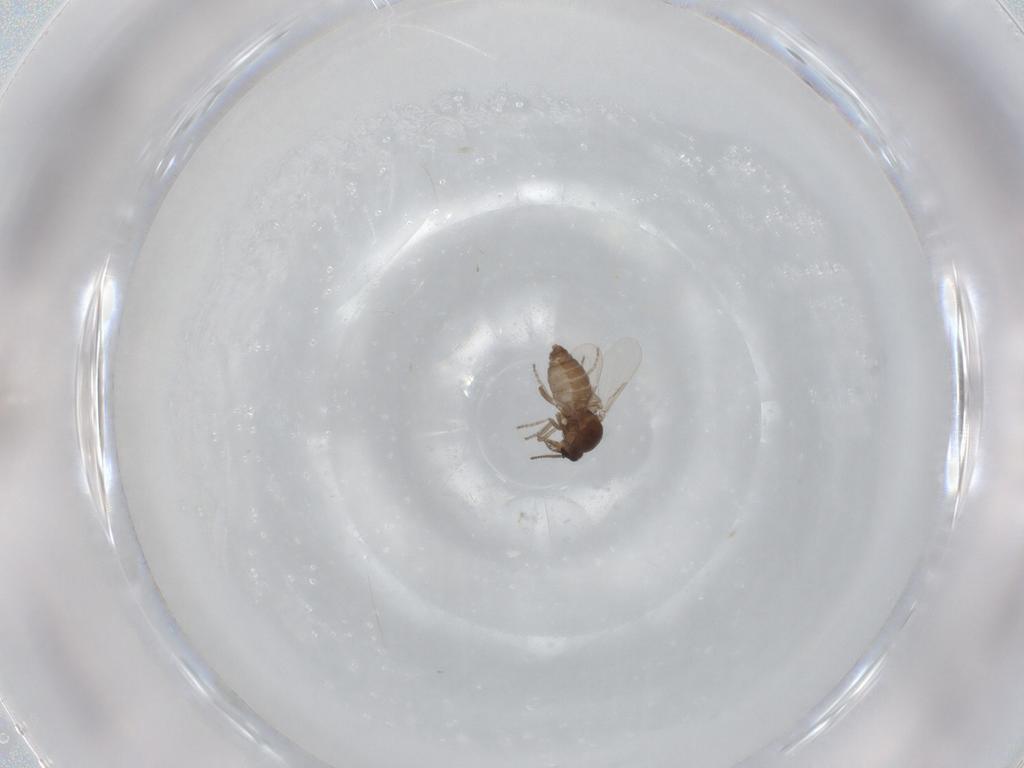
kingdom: Animalia
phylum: Arthropoda
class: Insecta
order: Diptera
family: Ceratopogonidae
